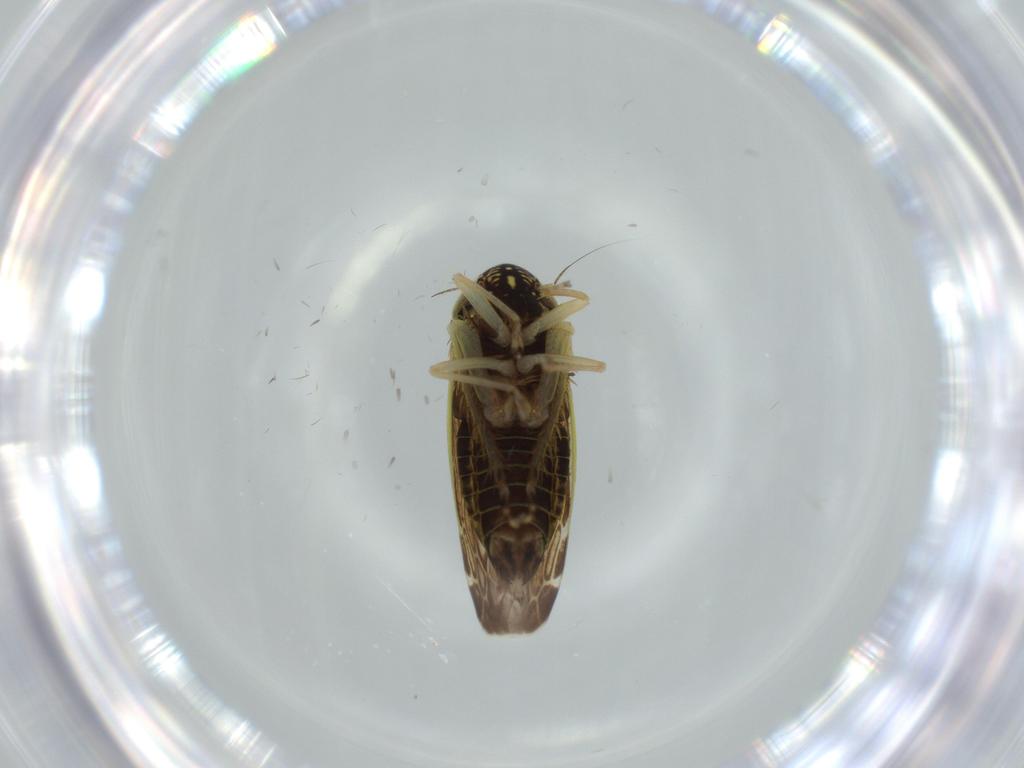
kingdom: Animalia
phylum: Arthropoda
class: Insecta
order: Hemiptera
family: Cicadellidae
